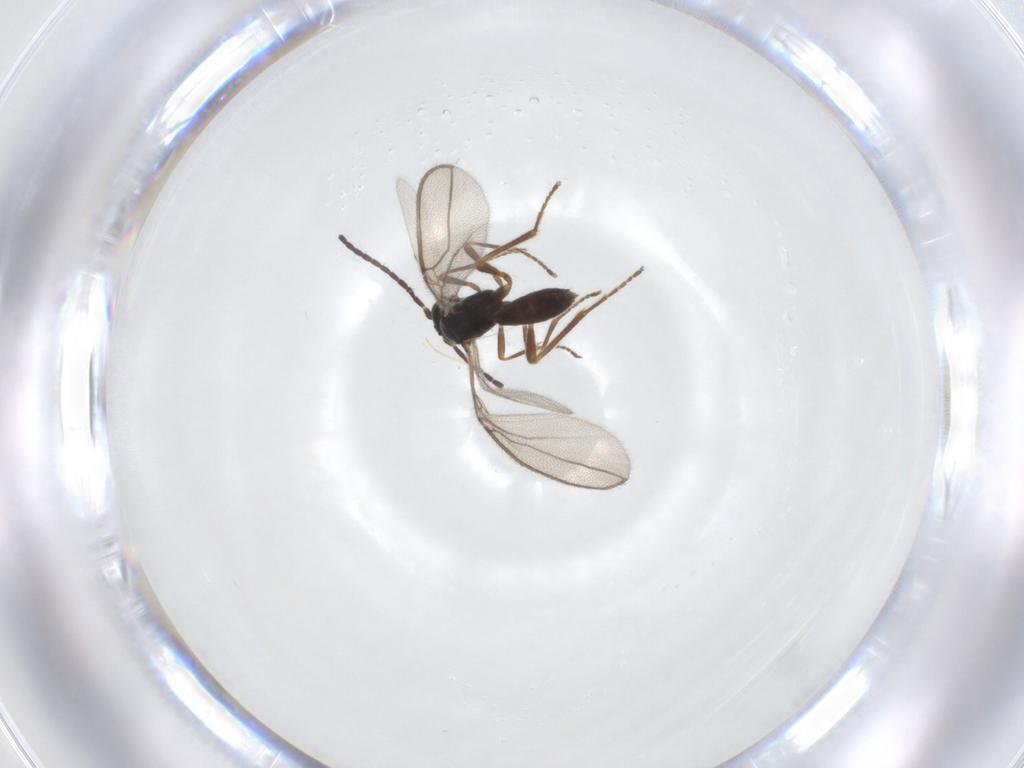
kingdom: Animalia
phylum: Arthropoda
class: Insecta
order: Hymenoptera
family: Braconidae
